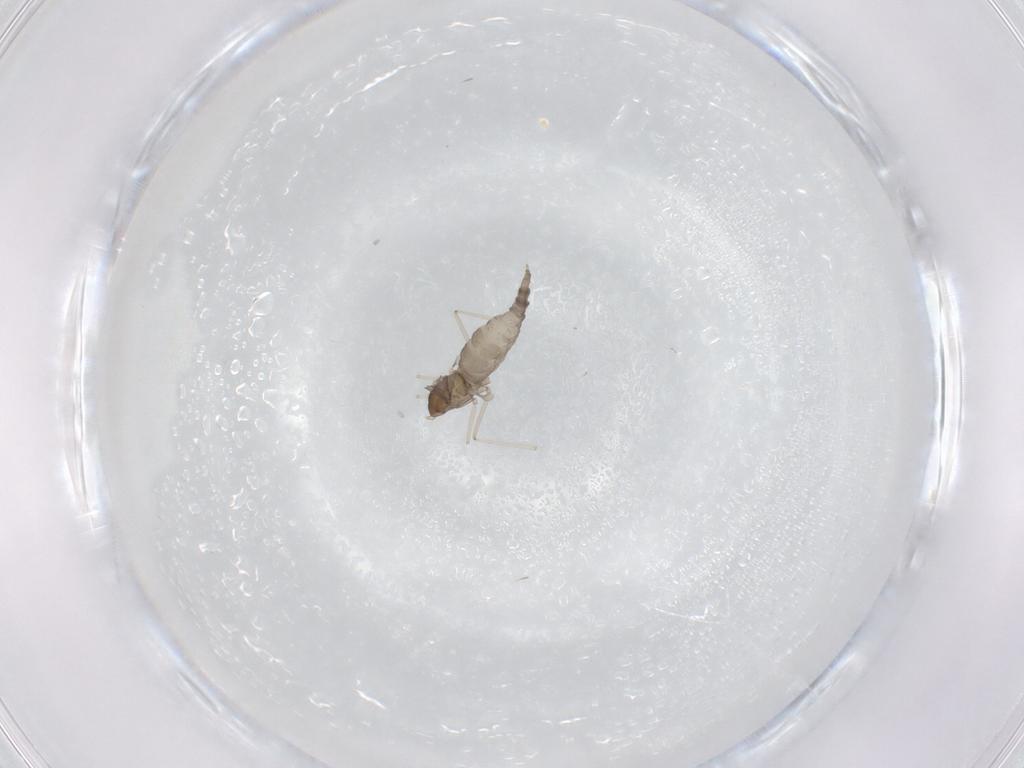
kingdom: Animalia
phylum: Arthropoda
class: Insecta
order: Diptera
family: Cecidomyiidae
